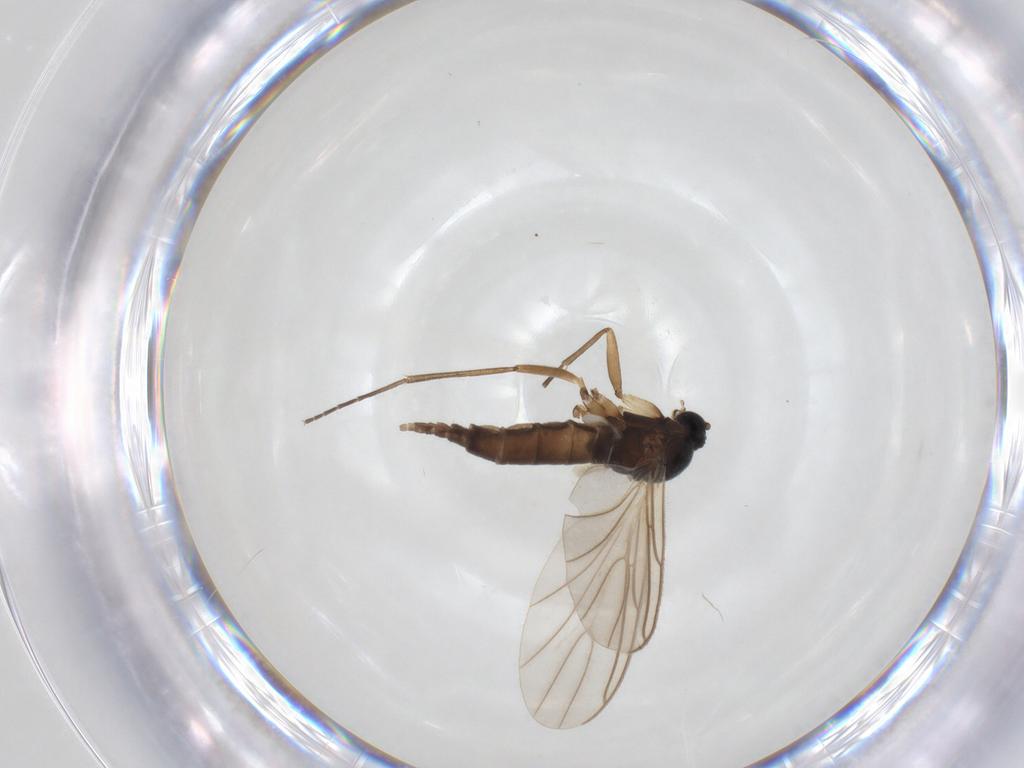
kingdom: Animalia
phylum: Arthropoda
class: Insecta
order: Diptera
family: Sciaridae
